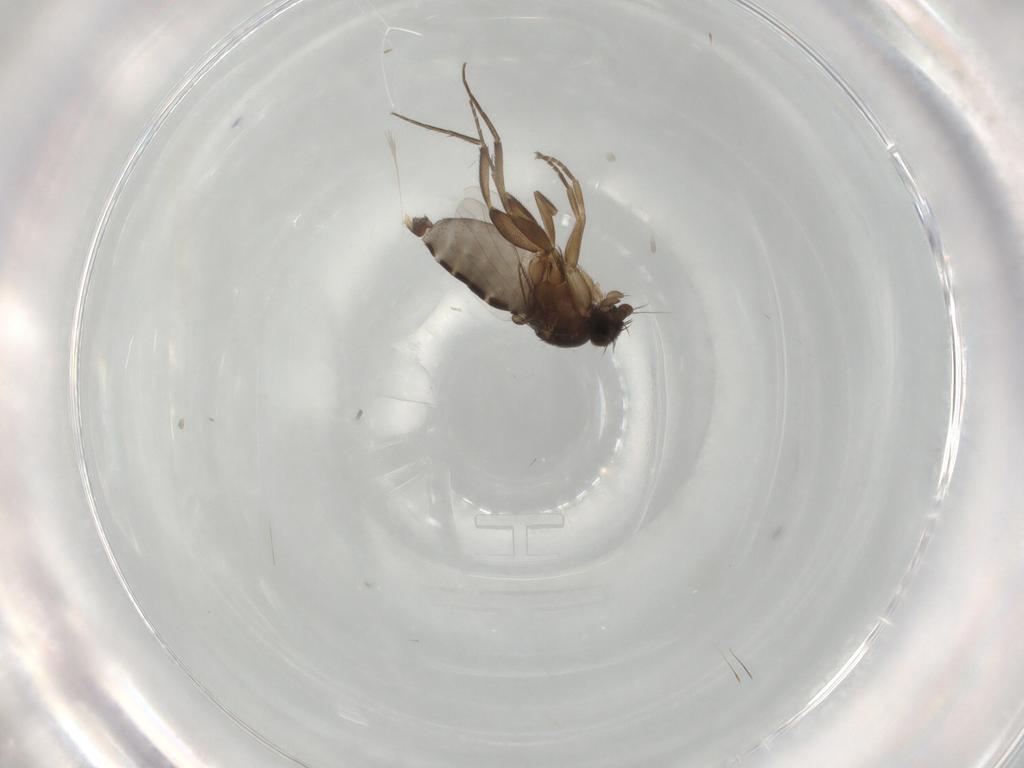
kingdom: Animalia
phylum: Arthropoda
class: Insecta
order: Diptera
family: Phoridae
